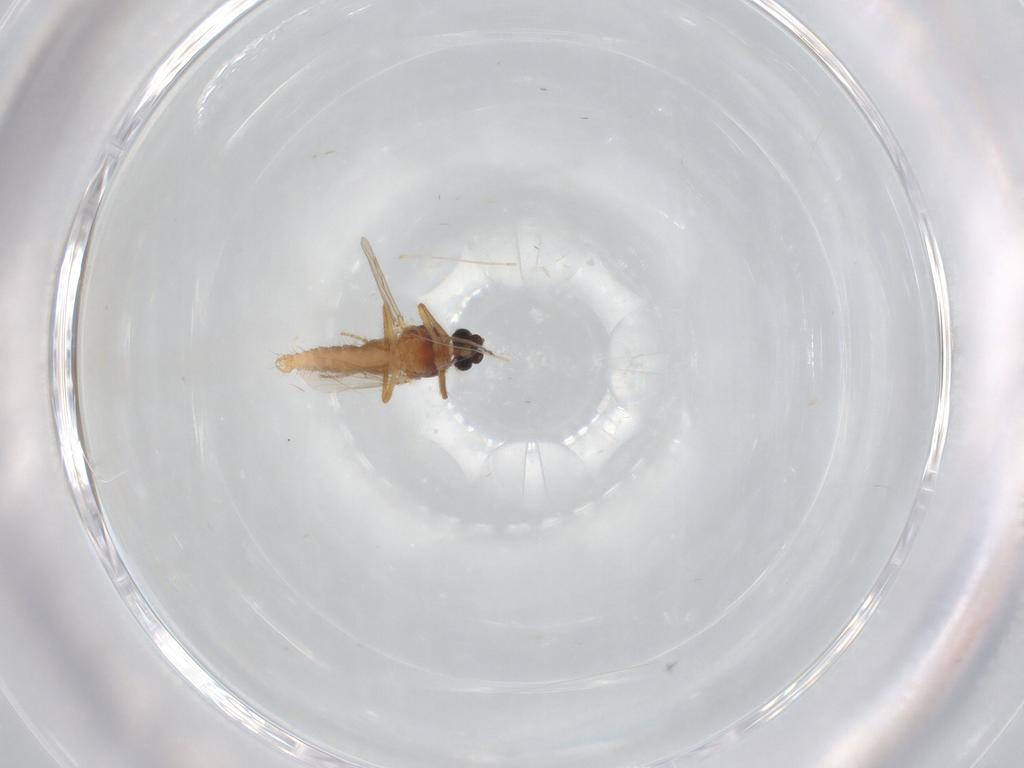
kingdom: Animalia
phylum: Arthropoda
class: Insecta
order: Diptera
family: Cecidomyiidae
